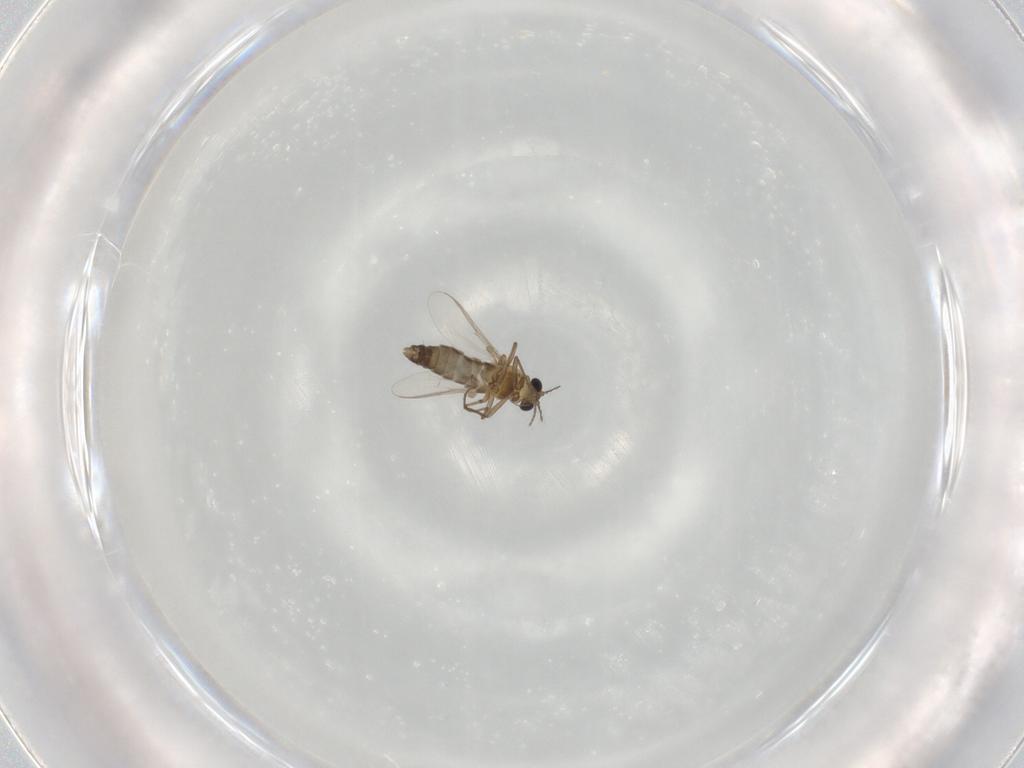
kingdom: Animalia
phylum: Arthropoda
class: Insecta
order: Diptera
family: Chironomidae
